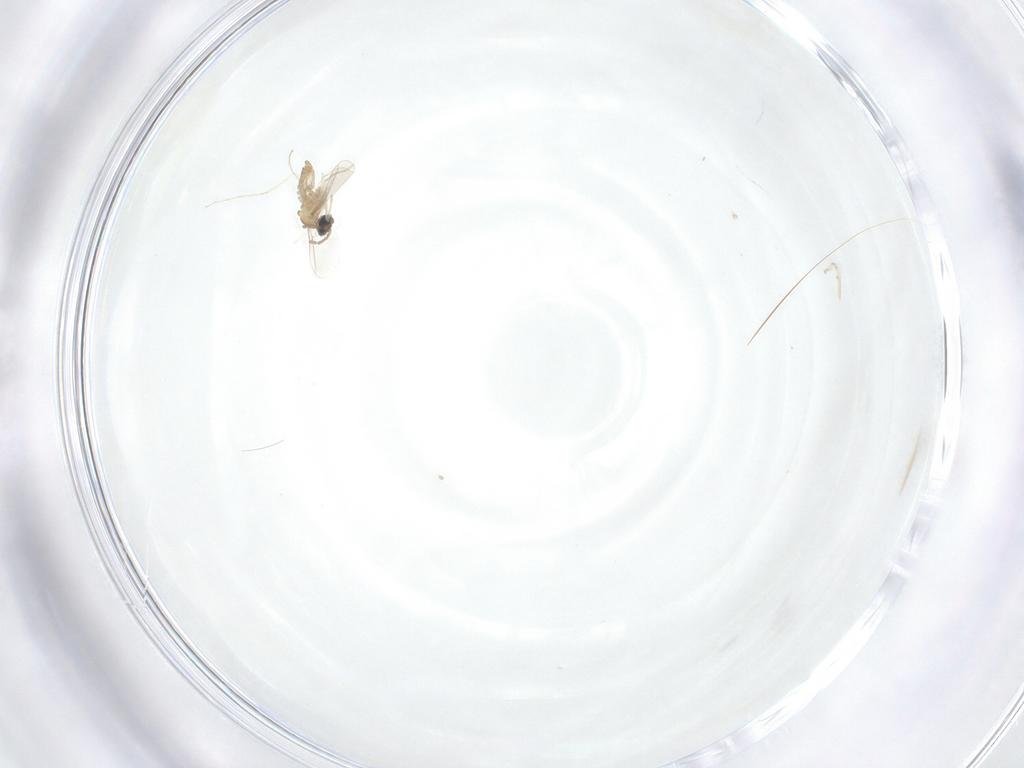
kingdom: Animalia
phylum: Arthropoda
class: Insecta
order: Diptera
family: Cecidomyiidae
